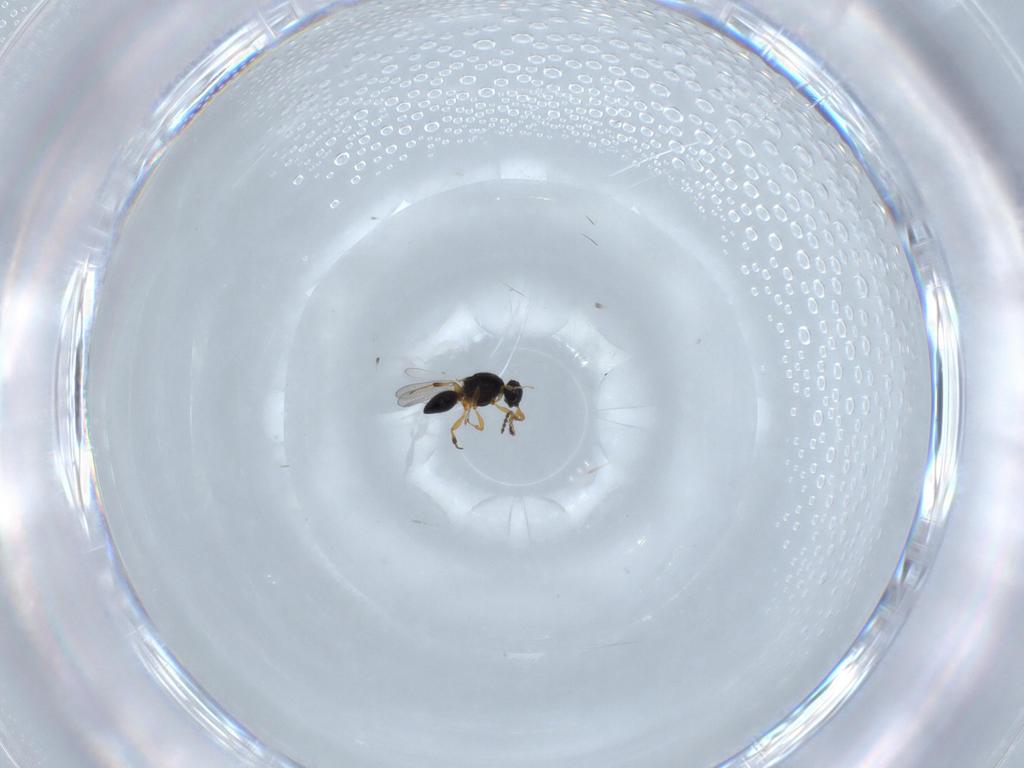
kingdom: Animalia
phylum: Arthropoda
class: Insecta
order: Hymenoptera
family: Platygastridae
